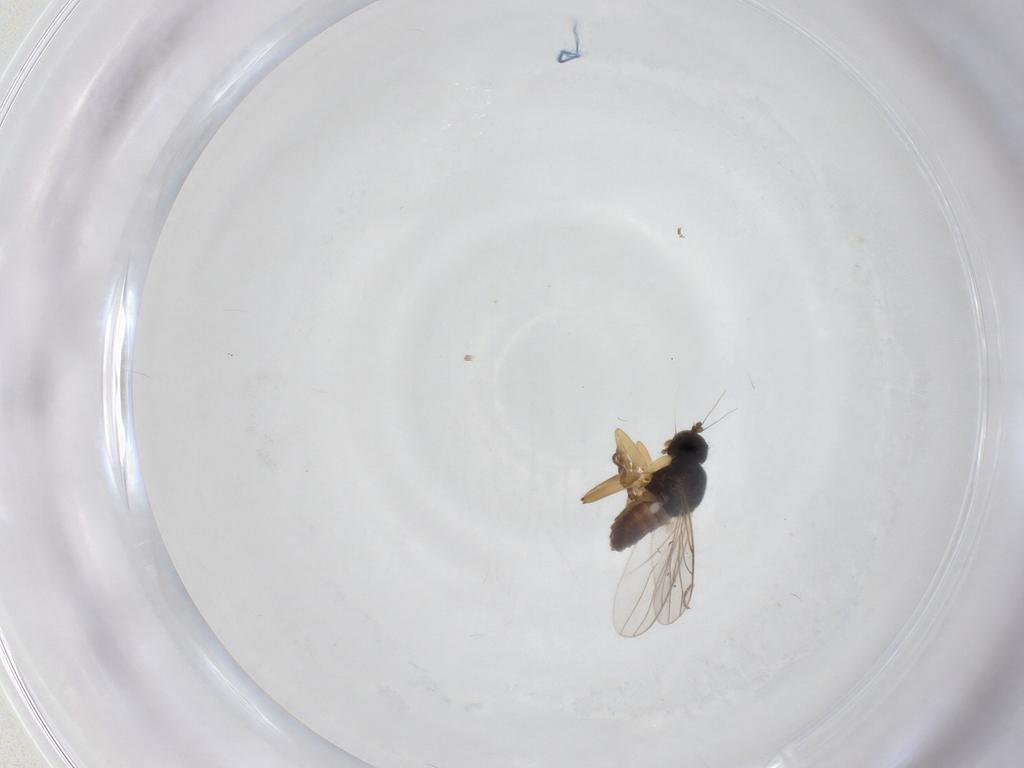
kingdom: Animalia
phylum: Arthropoda
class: Insecta
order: Diptera
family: Hybotidae
